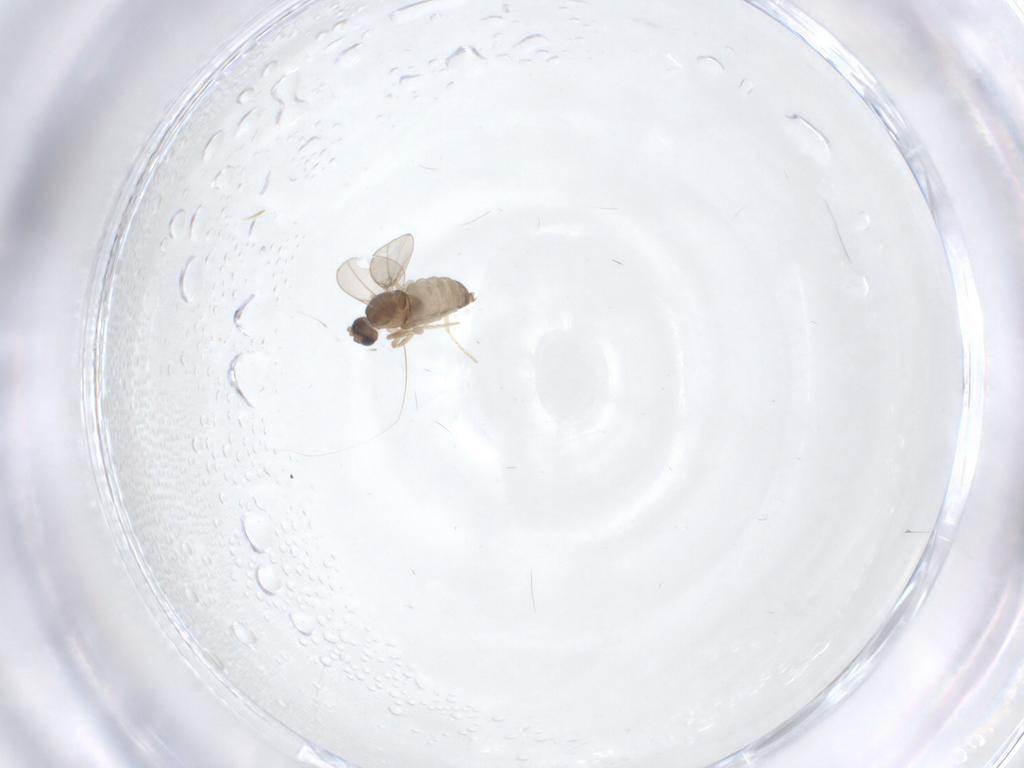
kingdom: Animalia
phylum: Arthropoda
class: Insecta
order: Diptera
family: Cecidomyiidae
